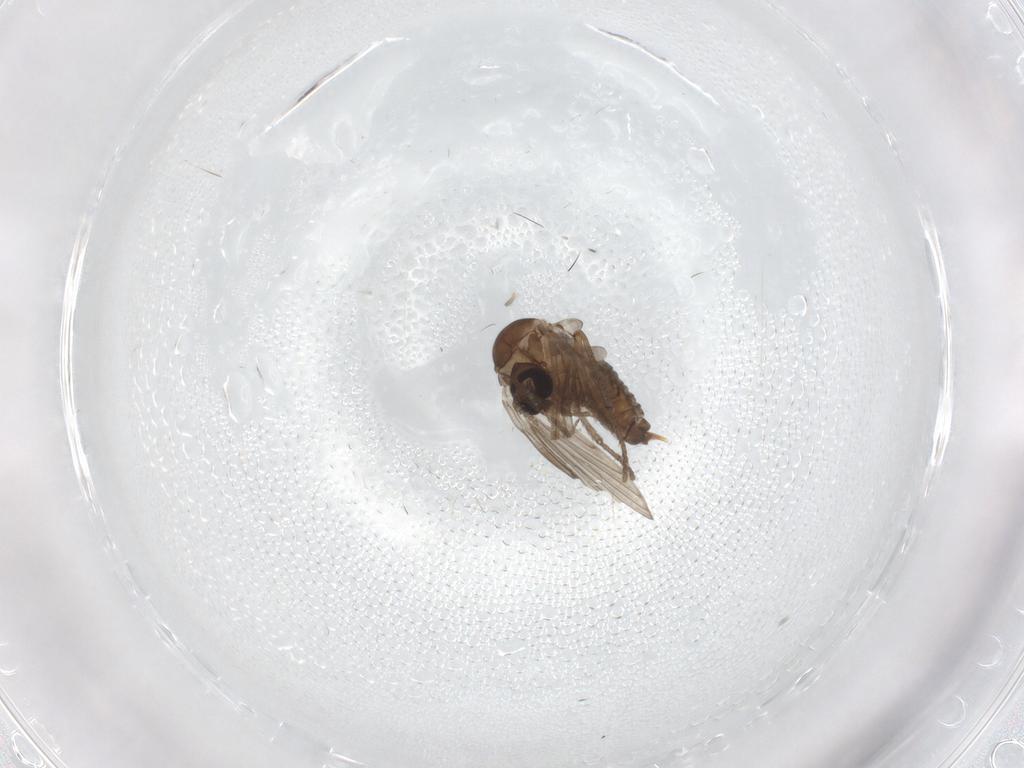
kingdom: Animalia
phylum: Arthropoda
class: Insecta
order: Diptera
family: Psychodidae
